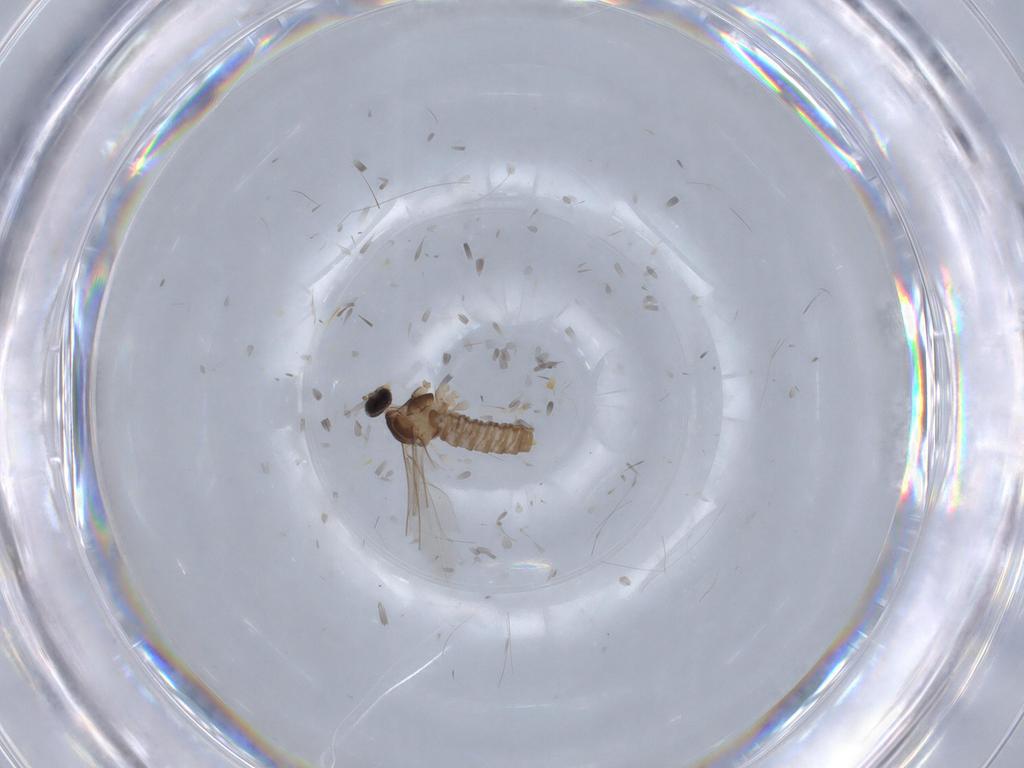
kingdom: Animalia
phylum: Arthropoda
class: Insecta
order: Diptera
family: Cecidomyiidae
